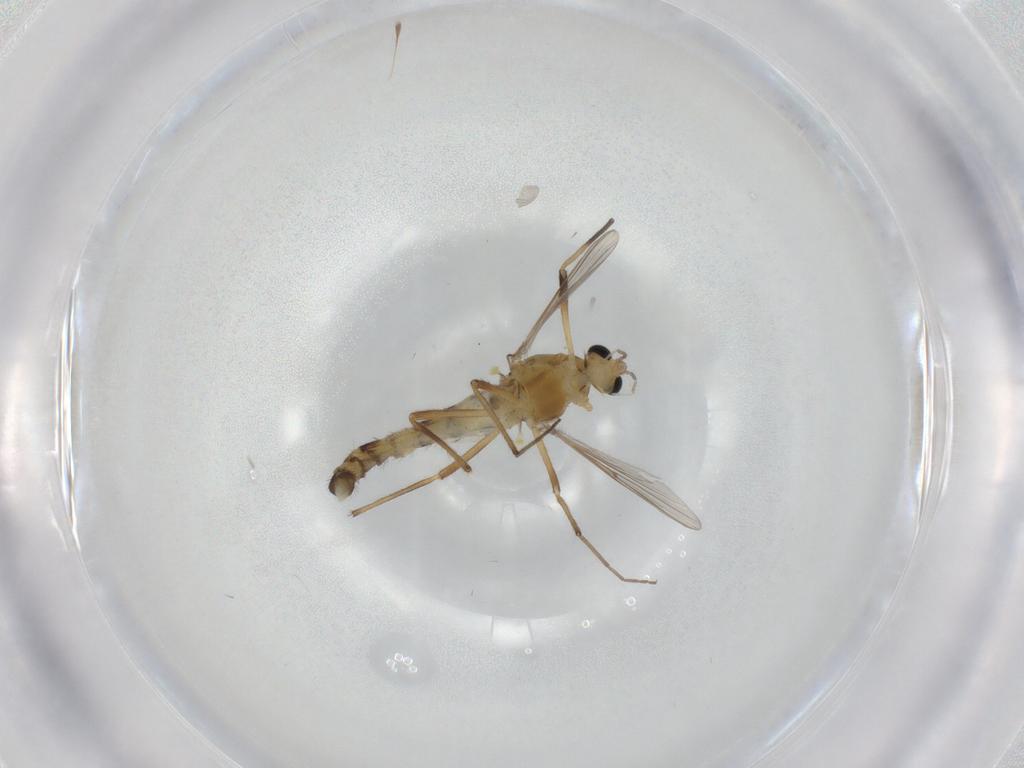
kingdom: Animalia
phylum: Arthropoda
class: Insecta
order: Diptera
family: Chironomidae
